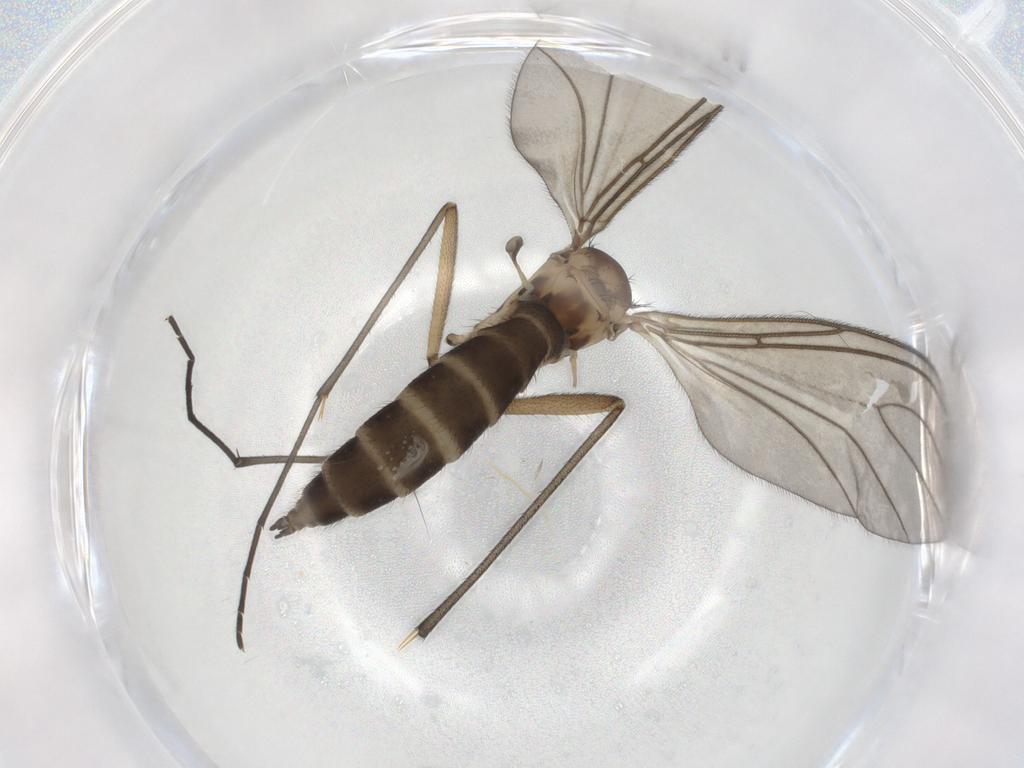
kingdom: Animalia
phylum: Arthropoda
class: Insecta
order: Diptera
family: Sciaridae
